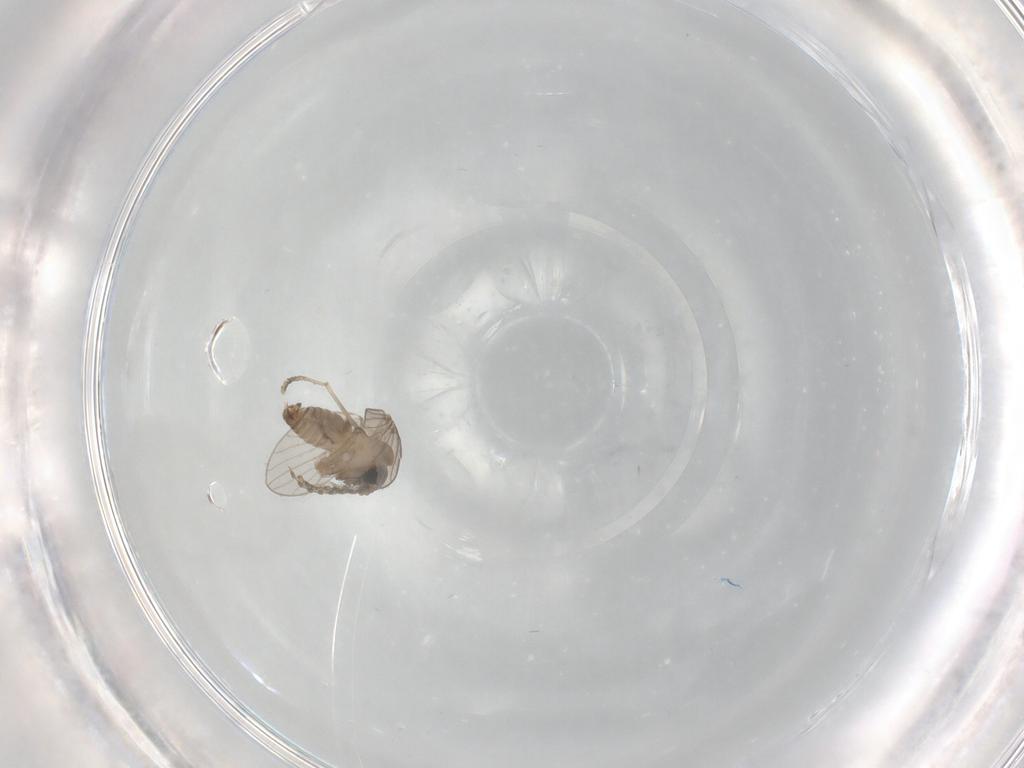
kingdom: Animalia
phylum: Arthropoda
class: Insecta
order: Diptera
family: Psychodidae
